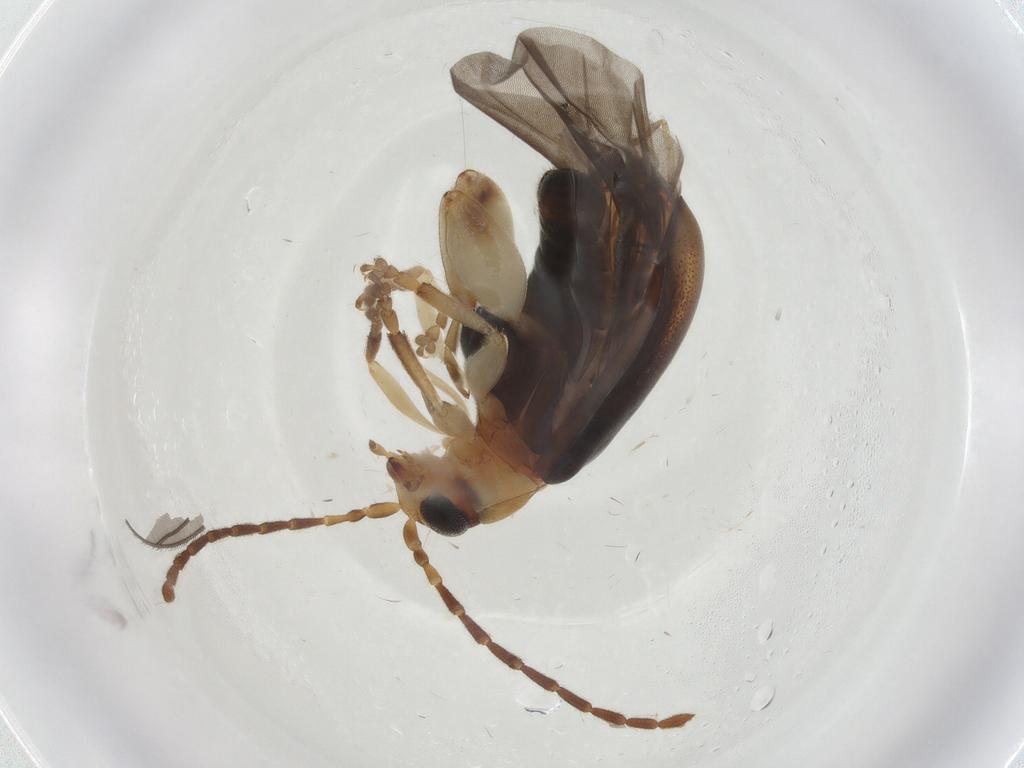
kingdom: Animalia
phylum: Arthropoda
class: Insecta
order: Coleoptera
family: Chrysomelidae
